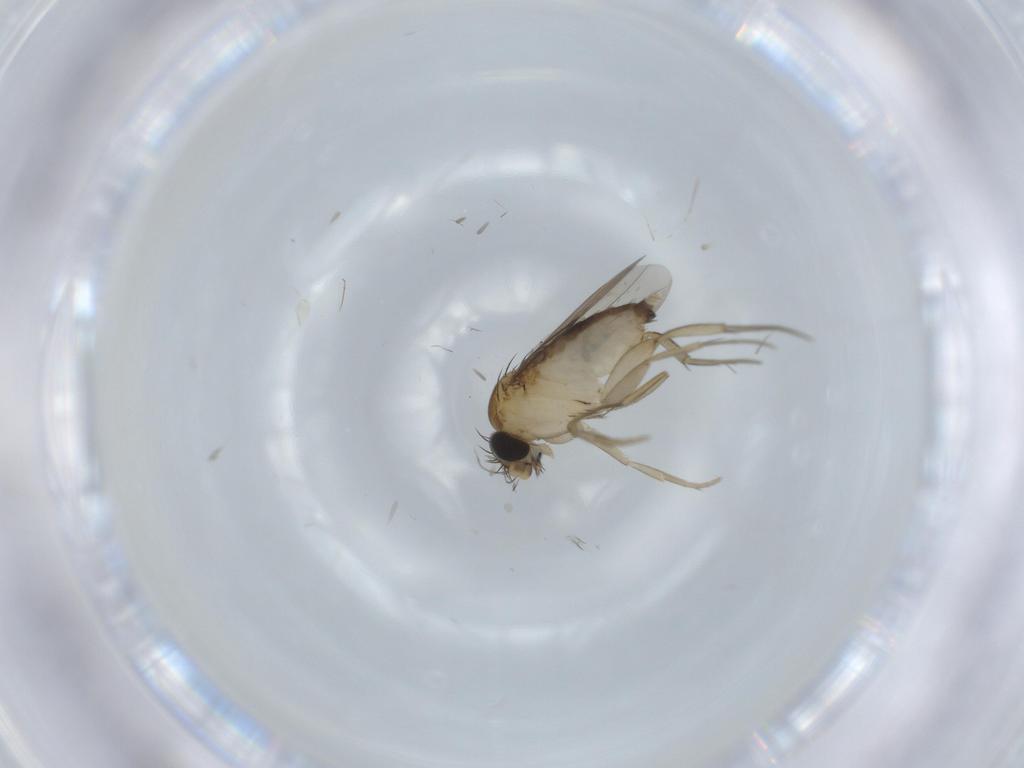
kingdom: Animalia
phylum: Arthropoda
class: Insecta
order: Diptera
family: Phoridae
